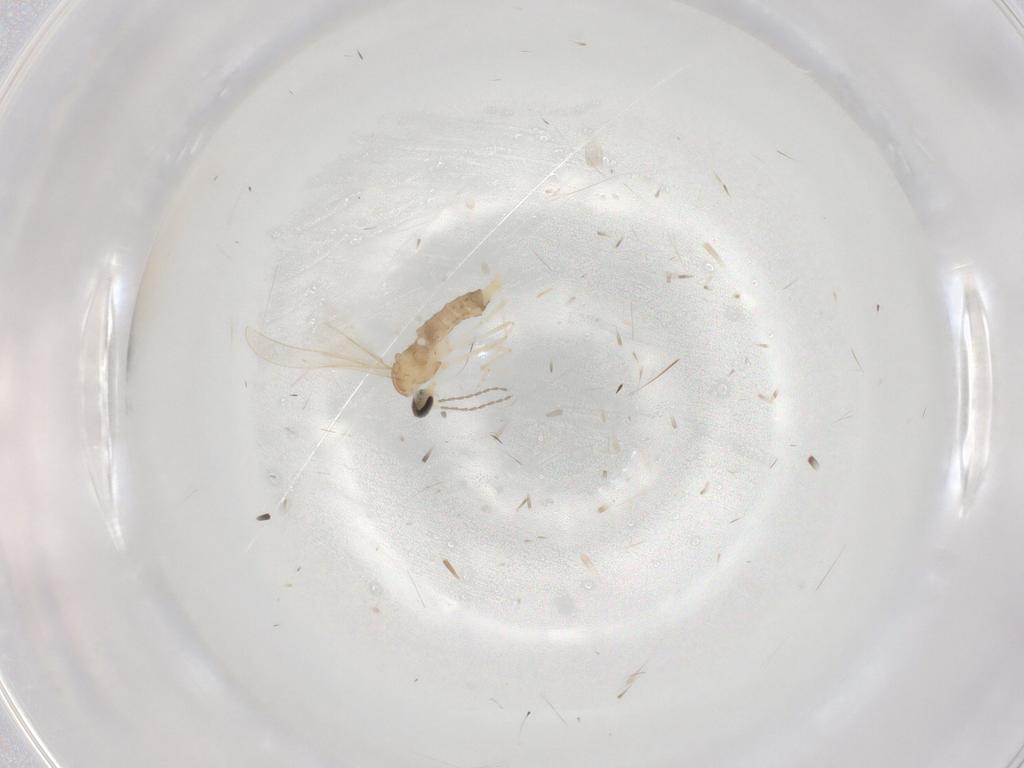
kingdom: Animalia
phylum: Arthropoda
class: Insecta
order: Diptera
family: Cecidomyiidae
